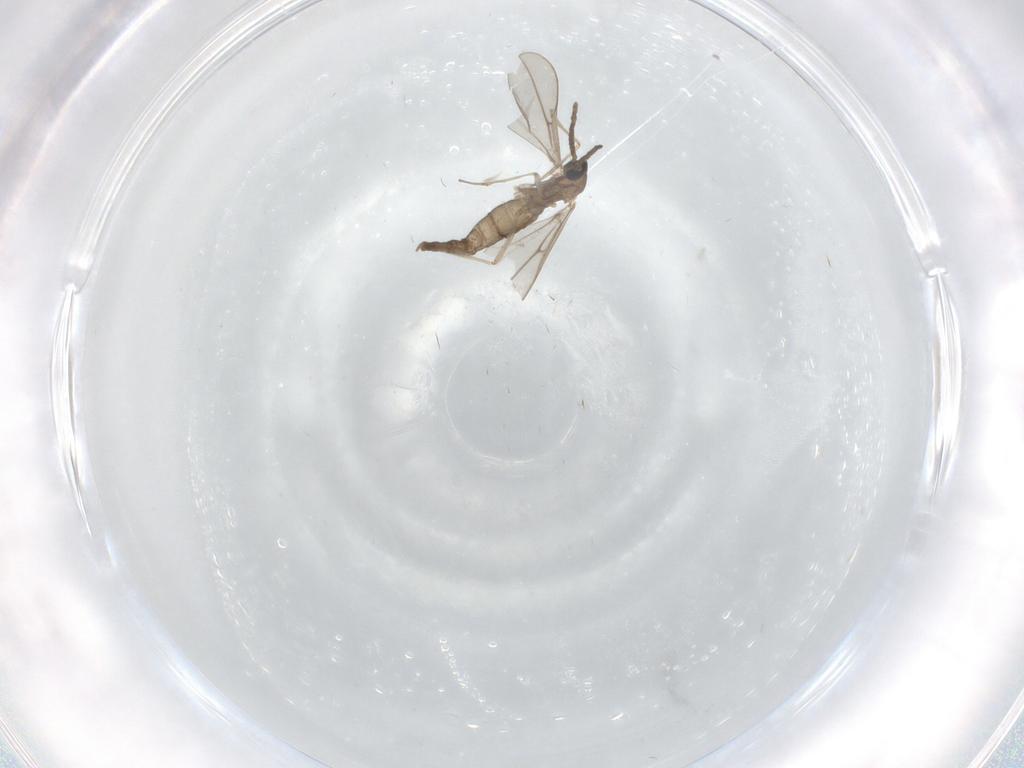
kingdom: Animalia
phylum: Arthropoda
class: Insecta
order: Diptera
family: Cecidomyiidae
